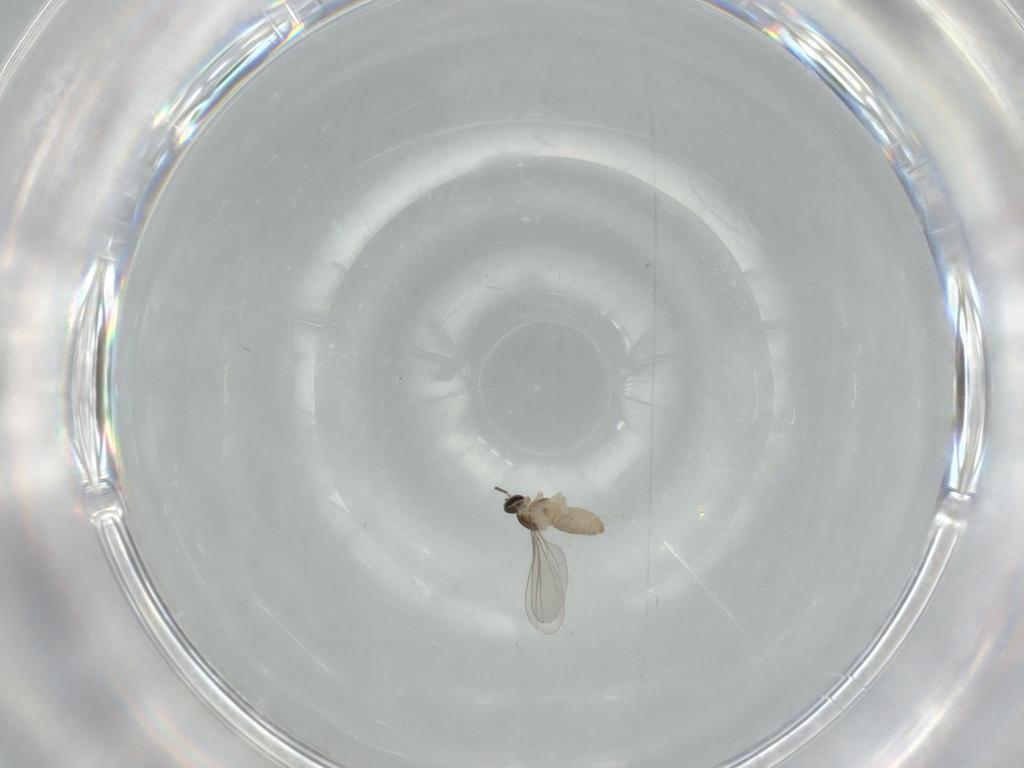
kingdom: Animalia
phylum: Arthropoda
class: Insecta
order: Diptera
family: Cecidomyiidae
